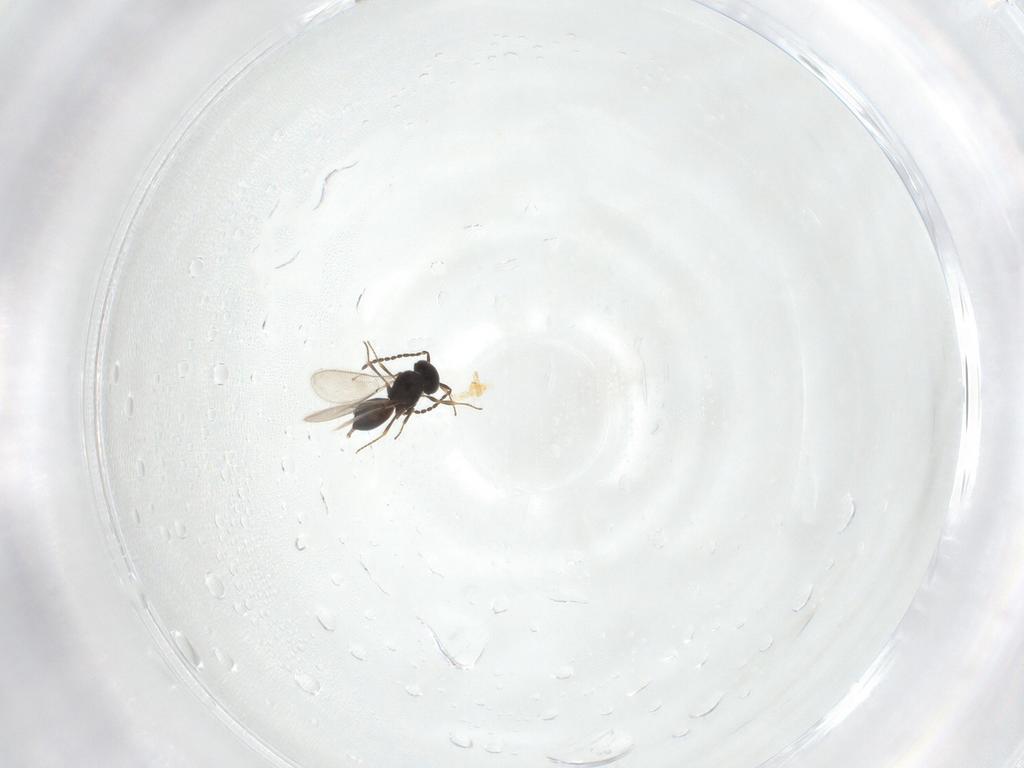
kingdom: Animalia
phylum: Arthropoda
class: Insecta
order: Hymenoptera
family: Scelionidae
